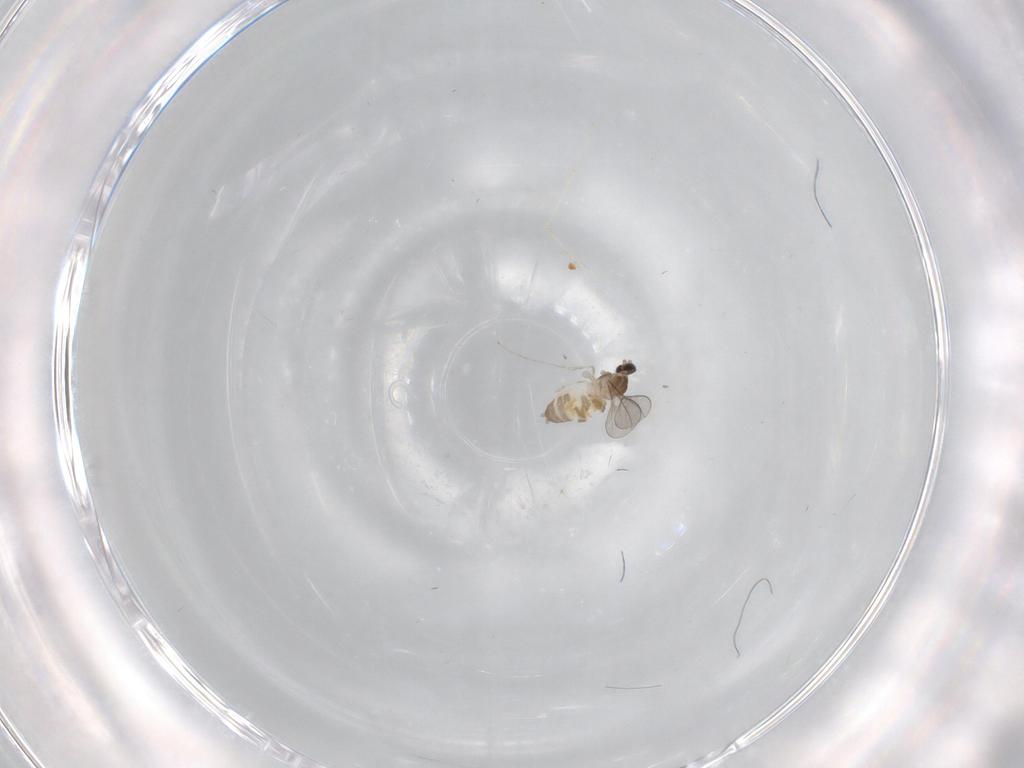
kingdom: Animalia
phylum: Arthropoda
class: Insecta
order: Diptera
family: Cecidomyiidae
